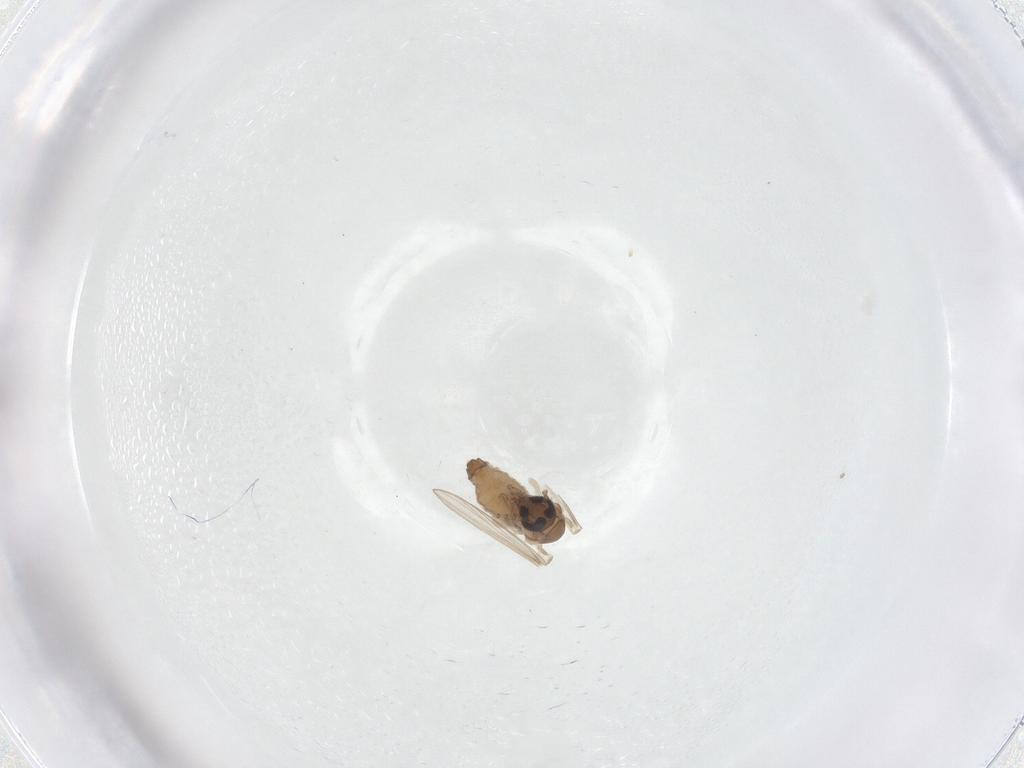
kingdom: Animalia
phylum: Arthropoda
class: Insecta
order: Diptera
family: Psychodidae
